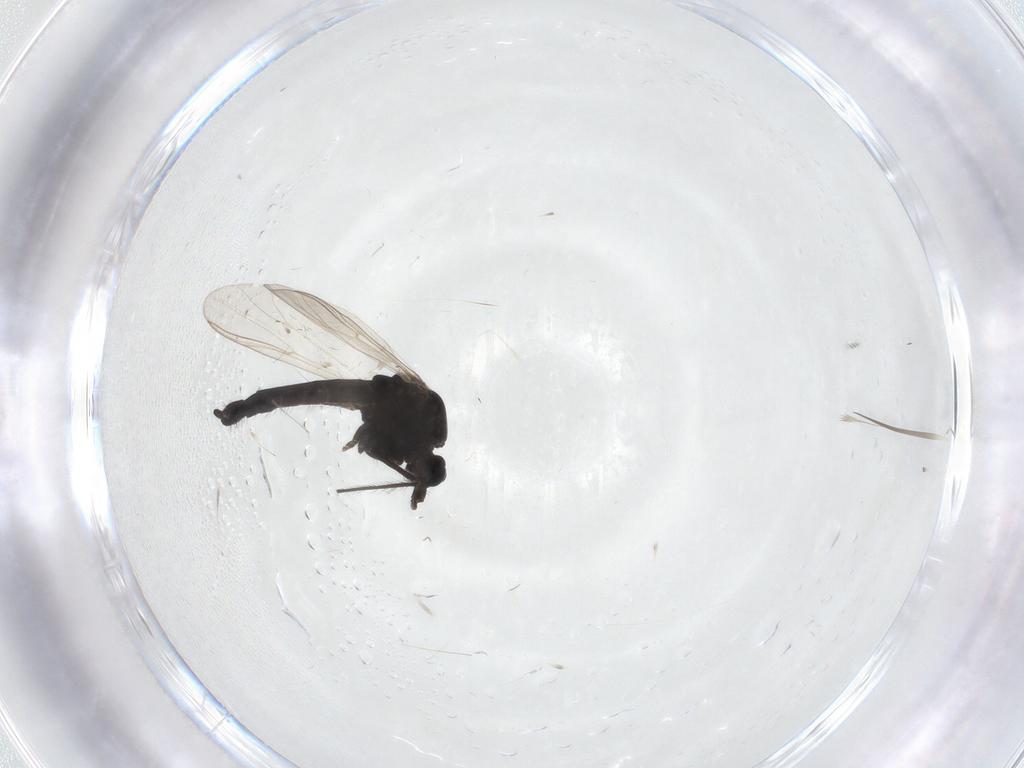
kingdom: Animalia
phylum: Arthropoda
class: Insecta
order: Diptera
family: Chironomidae
